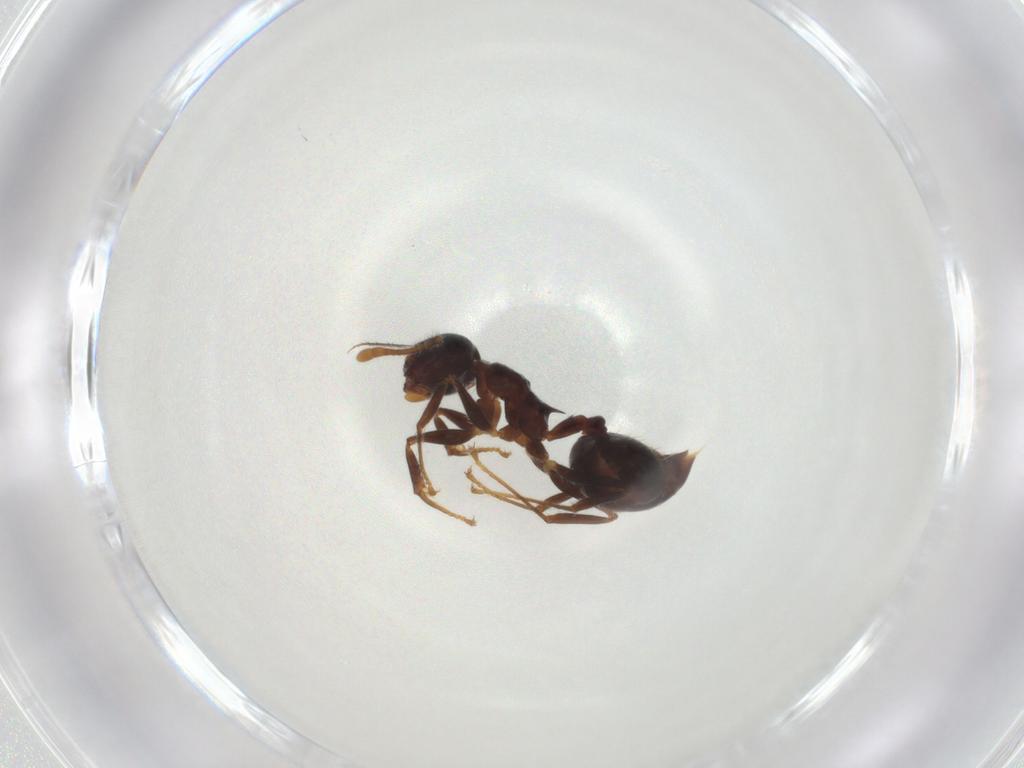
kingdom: Animalia
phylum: Arthropoda
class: Insecta
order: Hymenoptera
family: Formicidae
